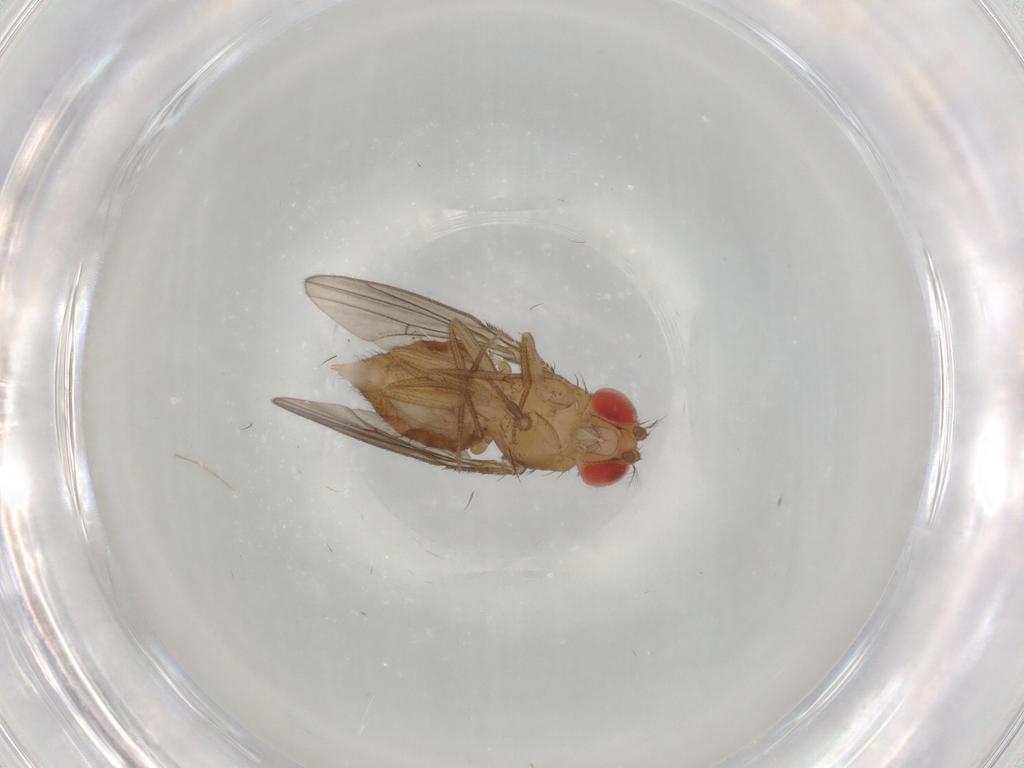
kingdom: Animalia
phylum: Arthropoda
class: Insecta
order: Diptera
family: Drosophilidae
